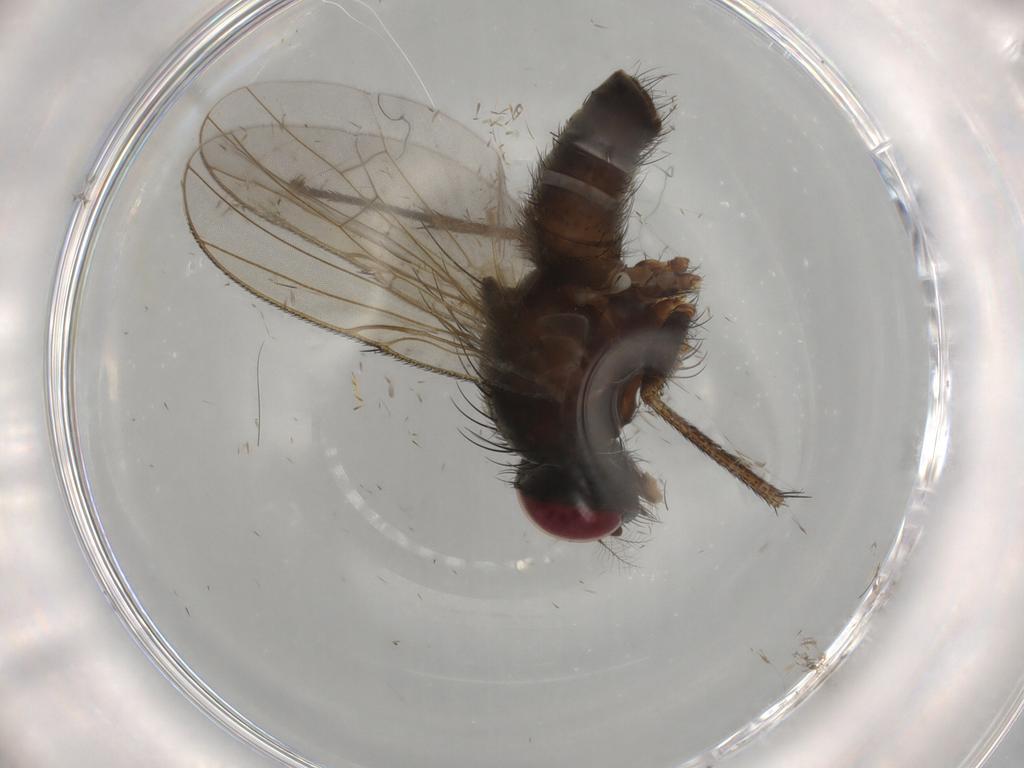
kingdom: Animalia
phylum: Arthropoda
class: Insecta
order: Diptera
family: Muscidae
